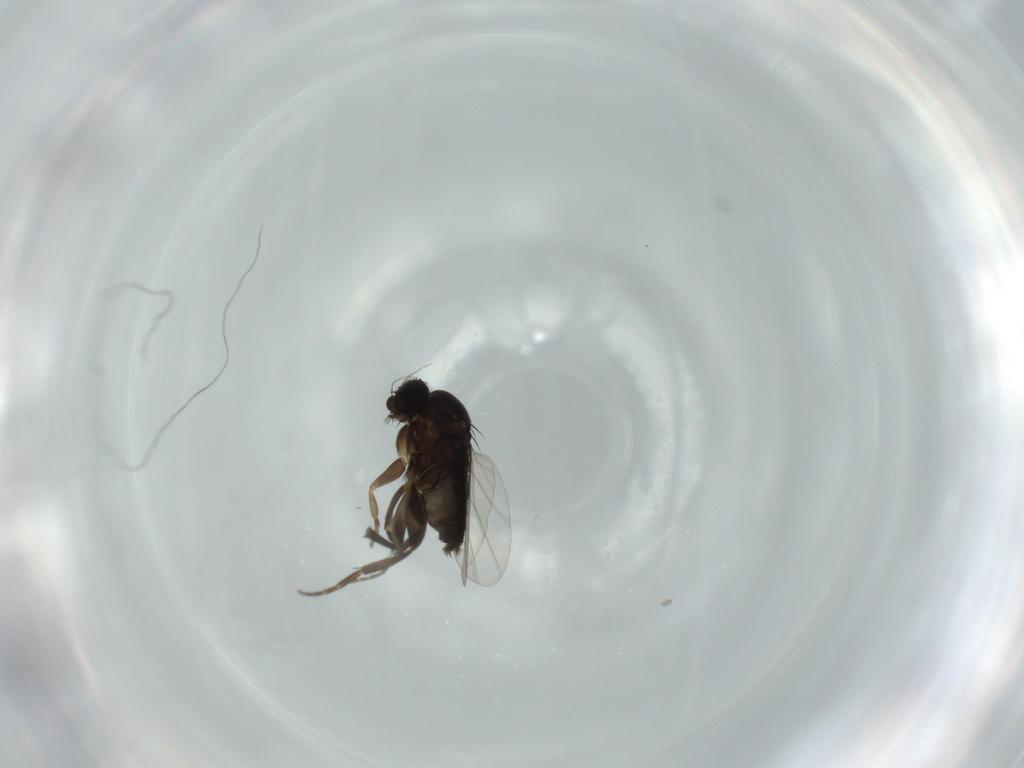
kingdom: Animalia
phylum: Arthropoda
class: Insecta
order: Diptera
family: Phoridae
